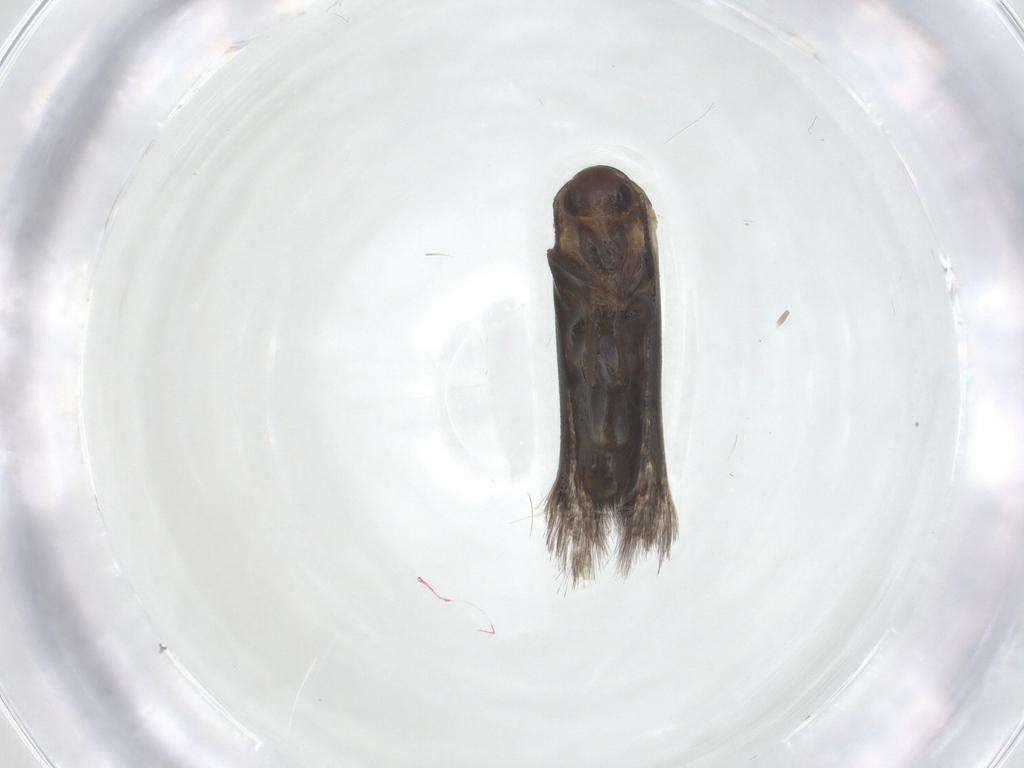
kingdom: Animalia
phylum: Arthropoda
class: Insecta
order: Lepidoptera
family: Elachistidae
